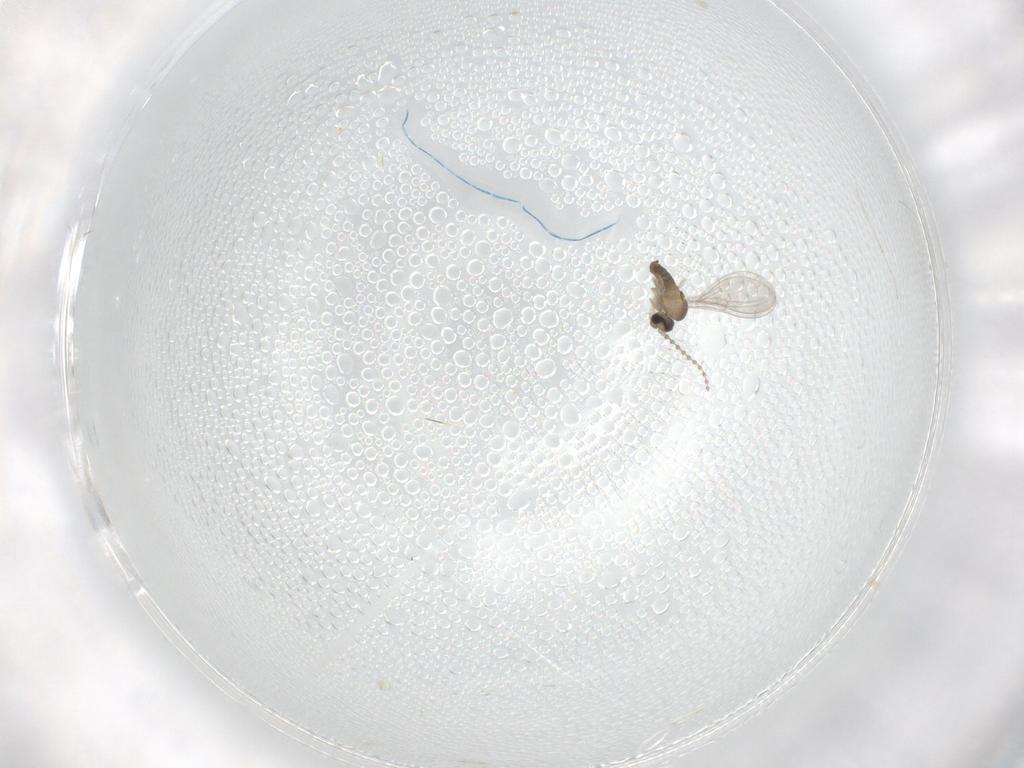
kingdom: Animalia
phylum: Arthropoda
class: Insecta
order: Diptera
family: Cecidomyiidae
